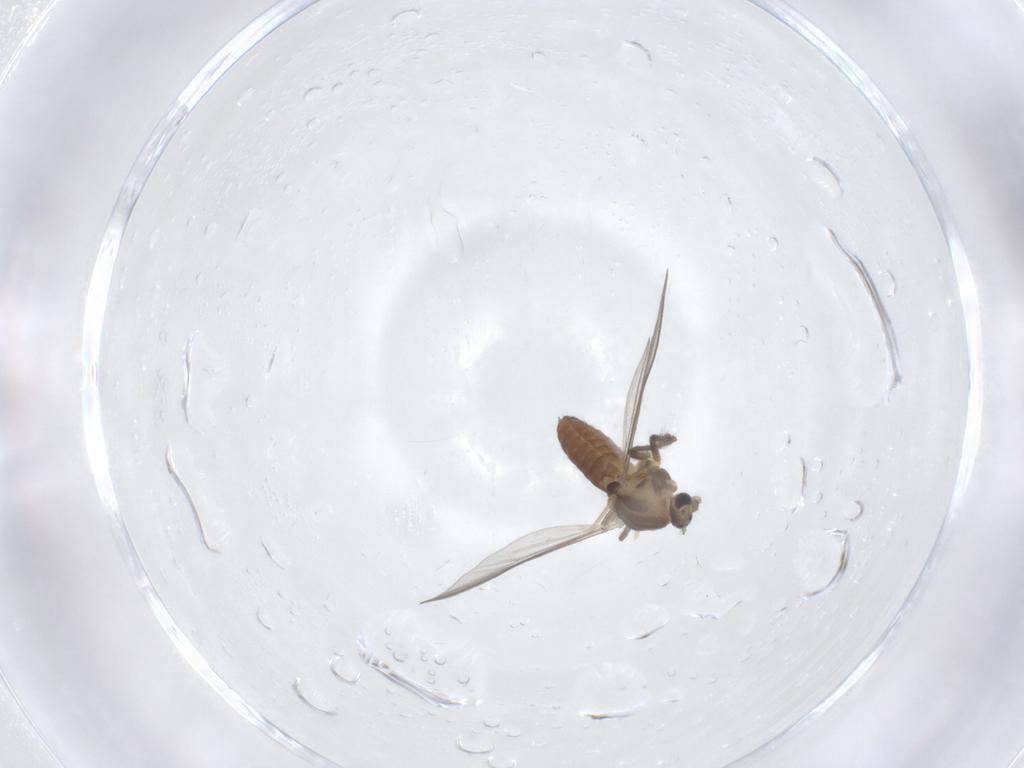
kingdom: Animalia
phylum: Arthropoda
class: Insecta
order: Diptera
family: Chironomidae
